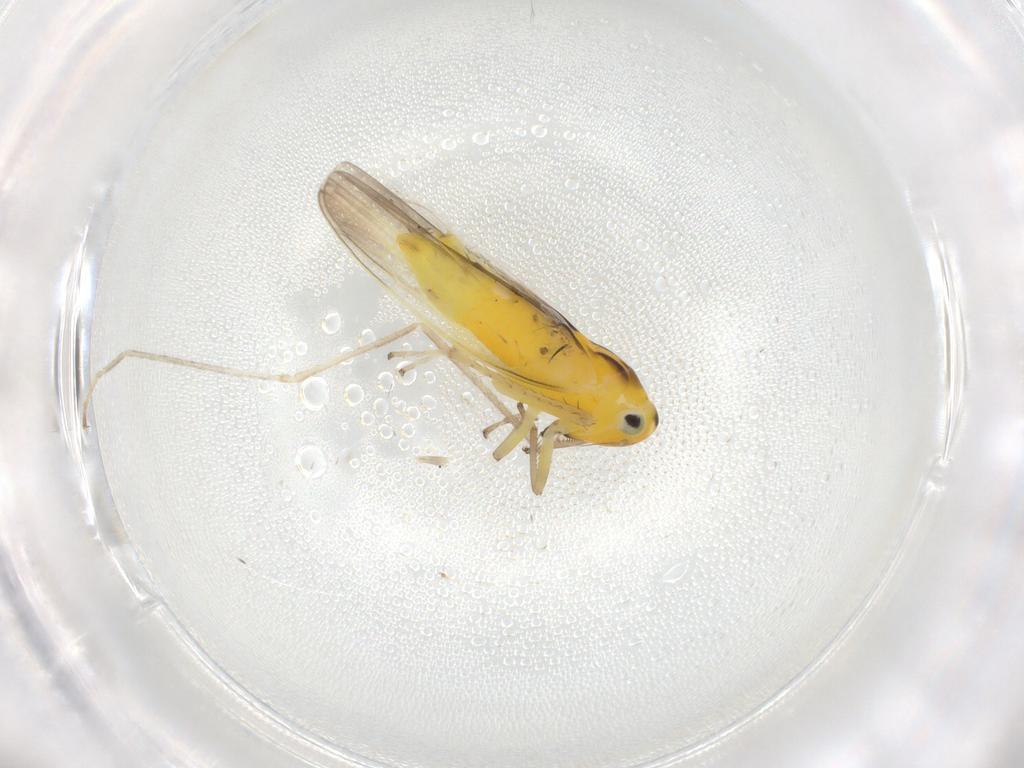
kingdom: Animalia
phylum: Arthropoda
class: Insecta
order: Hemiptera
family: Cicadellidae
